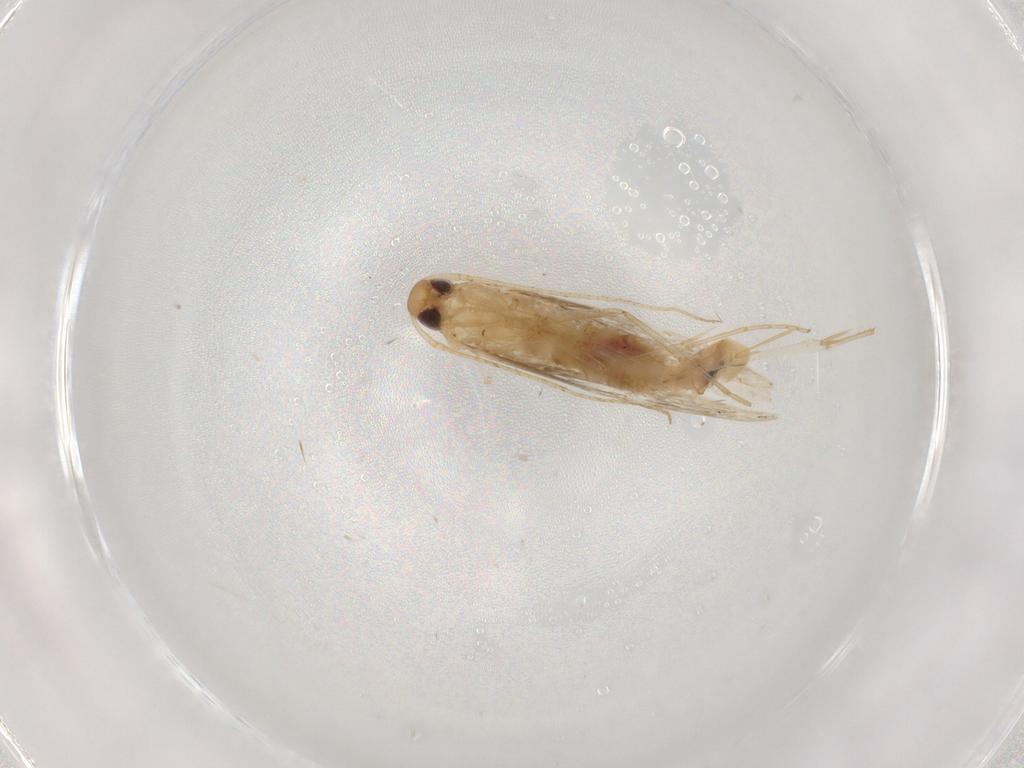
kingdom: Animalia
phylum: Arthropoda
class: Insecta
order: Lepidoptera
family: Cosmopterigidae
